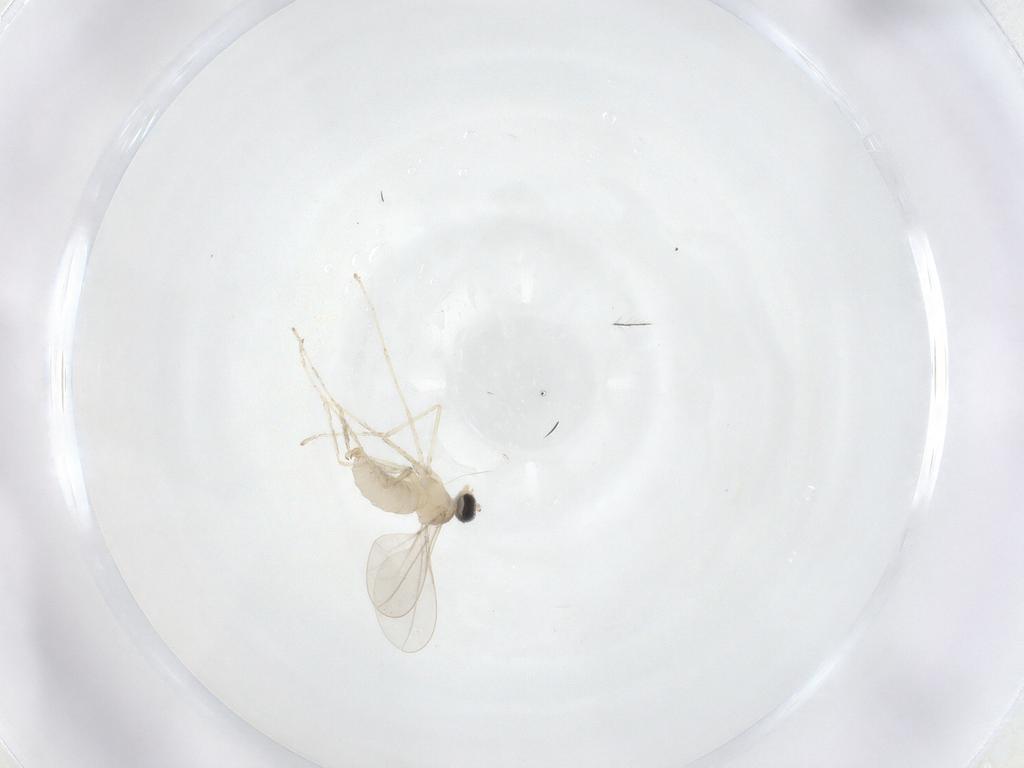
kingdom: Animalia
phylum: Arthropoda
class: Insecta
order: Diptera
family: Cecidomyiidae
